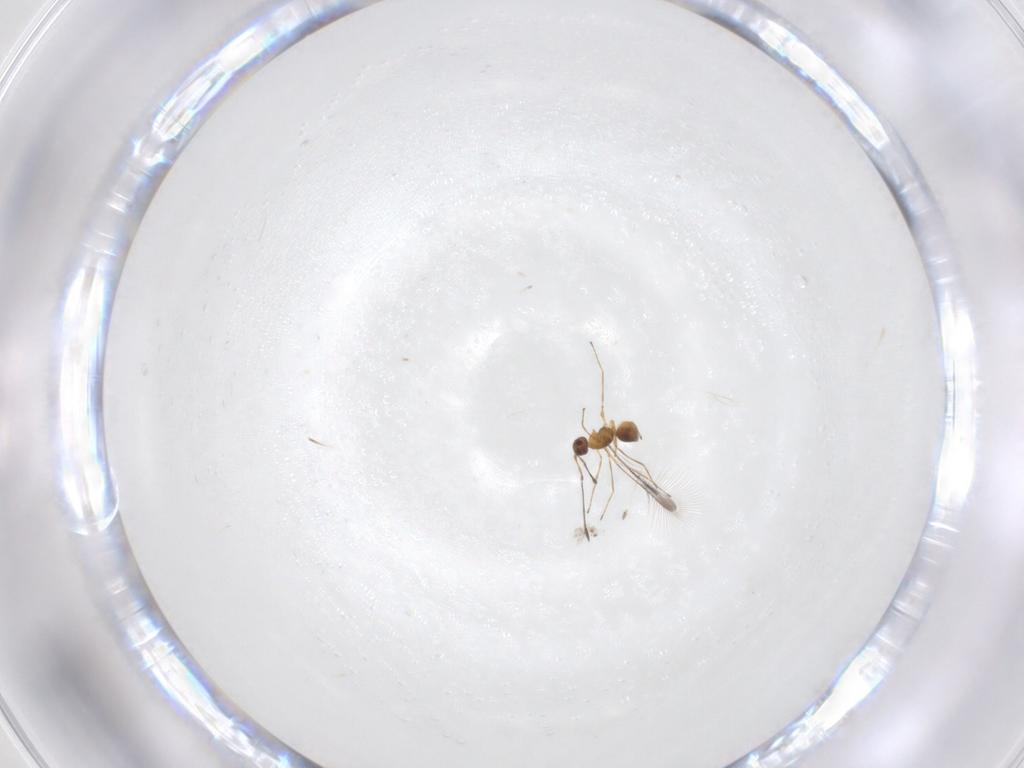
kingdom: Animalia
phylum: Arthropoda
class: Insecta
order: Hymenoptera
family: Mymaridae
